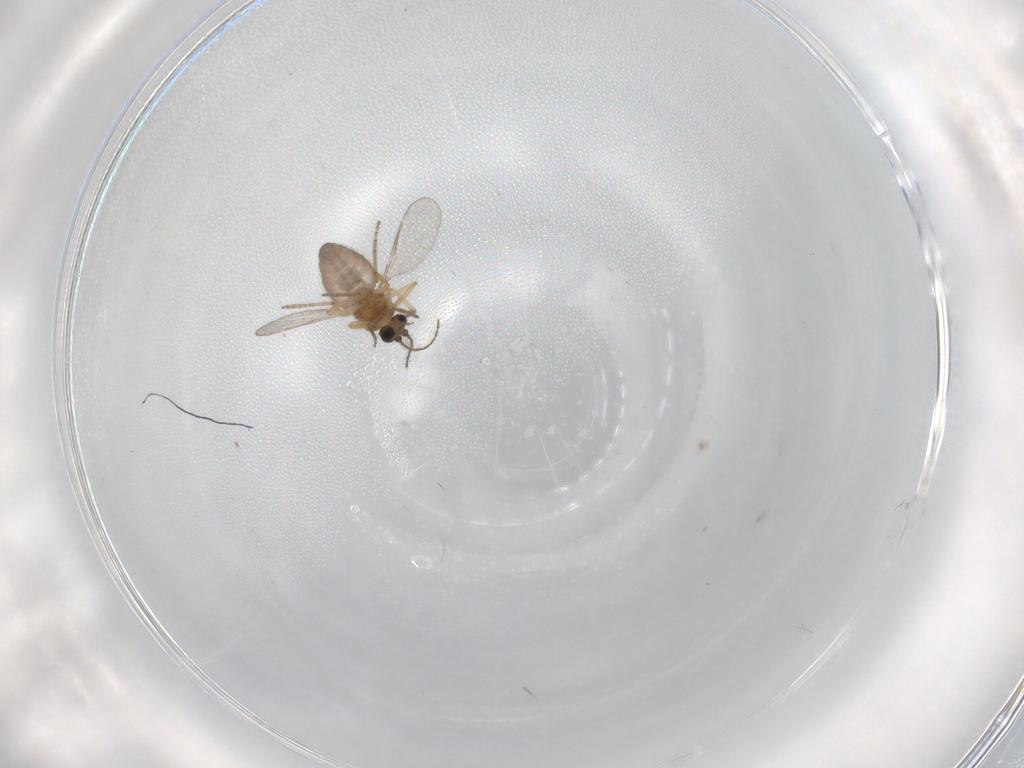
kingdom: Animalia
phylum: Arthropoda
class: Insecta
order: Diptera
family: Ceratopogonidae
